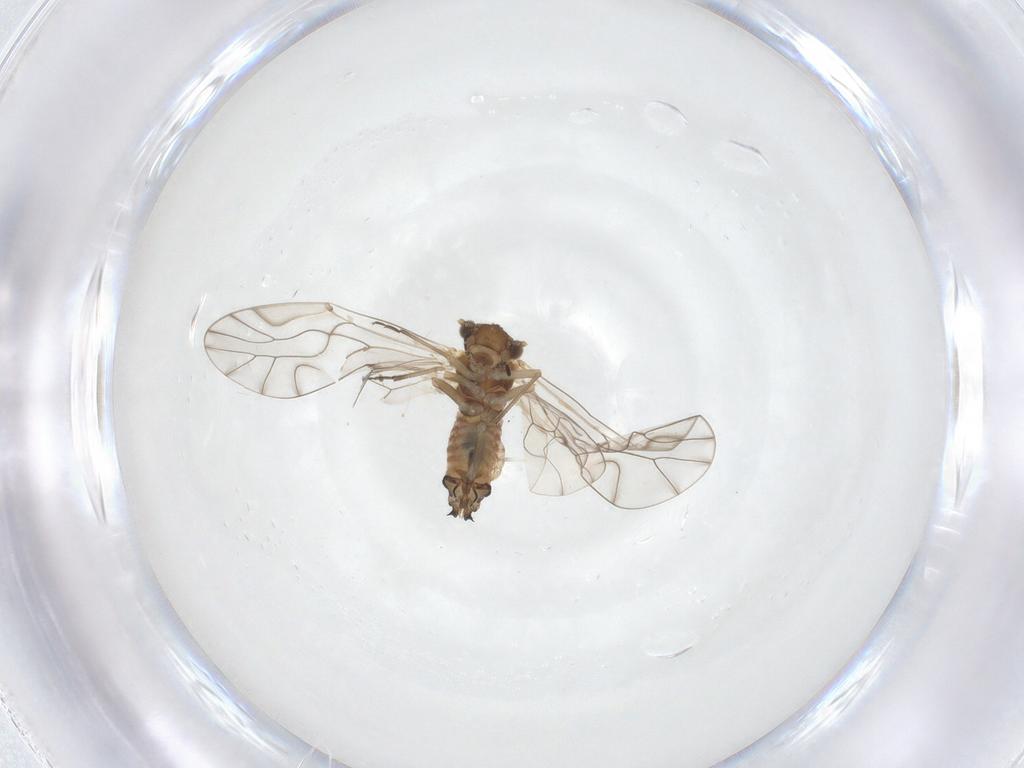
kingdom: Animalia
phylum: Arthropoda
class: Insecta
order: Psocodea
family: Lachesillidae
